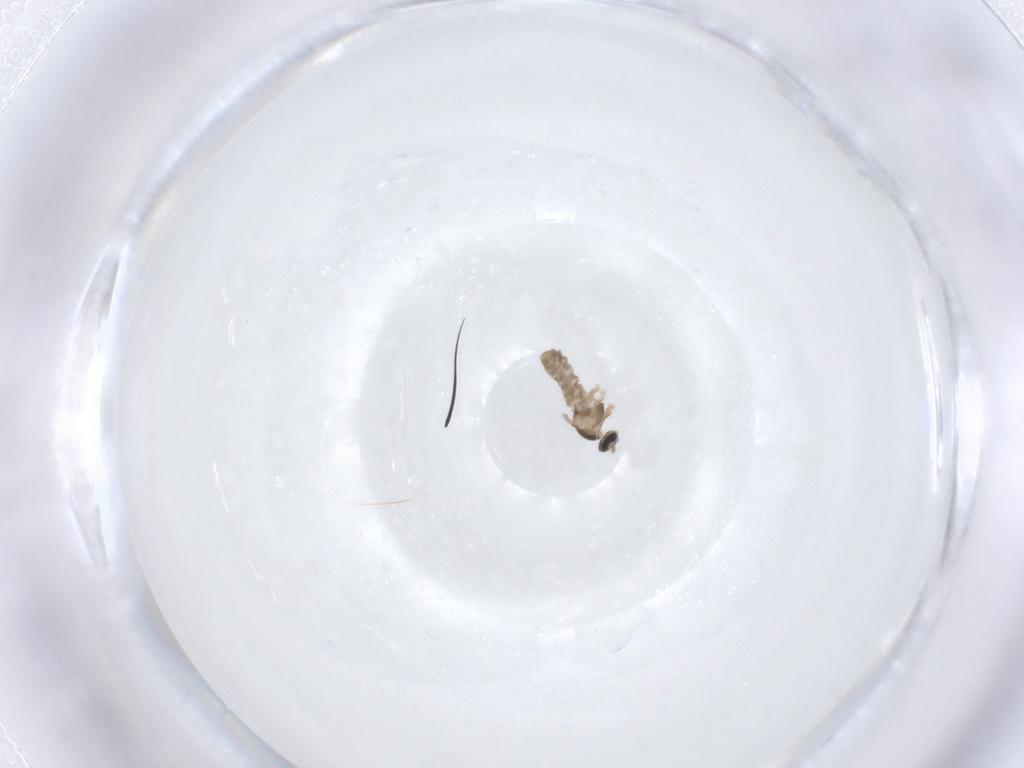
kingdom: Animalia
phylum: Arthropoda
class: Insecta
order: Diptera
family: Cecidomyiidae
